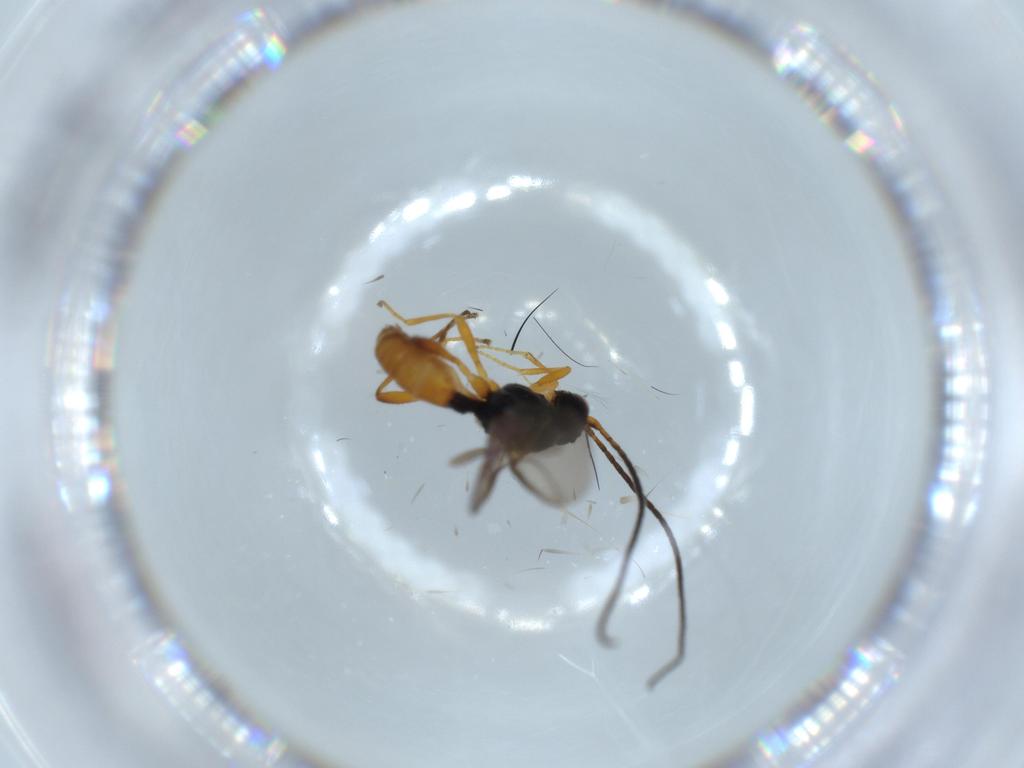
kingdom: Animalia
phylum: Arthropoda
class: Insecta
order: Hymenoptera
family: Braconidae
